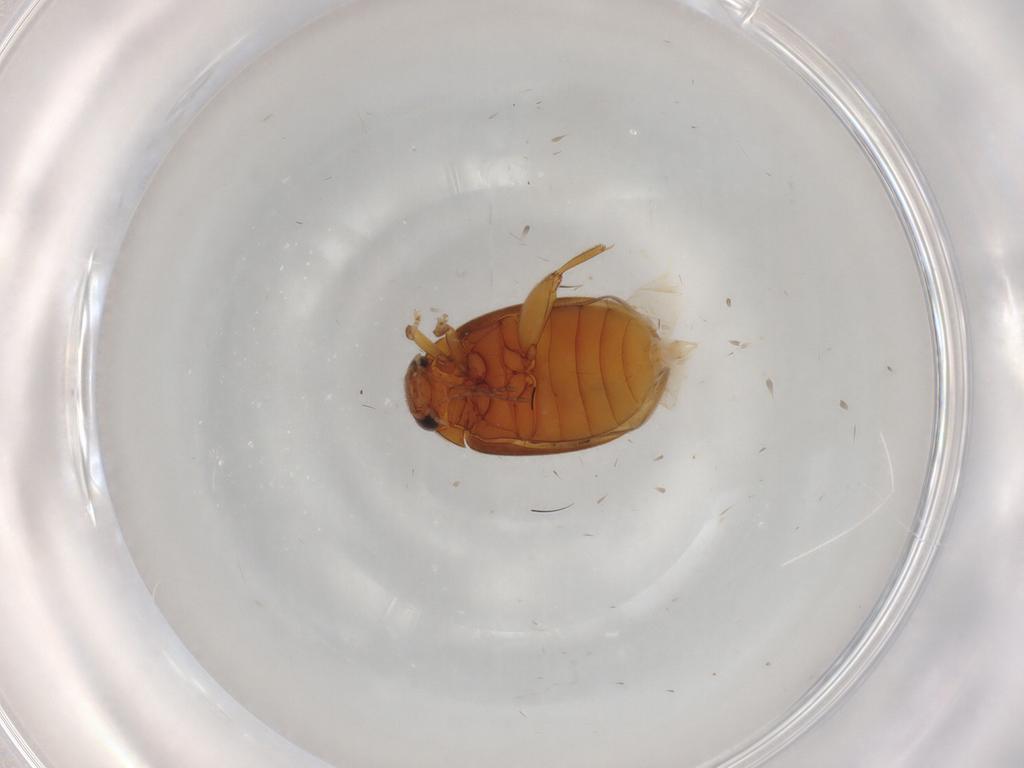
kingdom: Animalia
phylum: Arthropoda
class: Insecta
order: Coleoptera
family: Scirtidae
